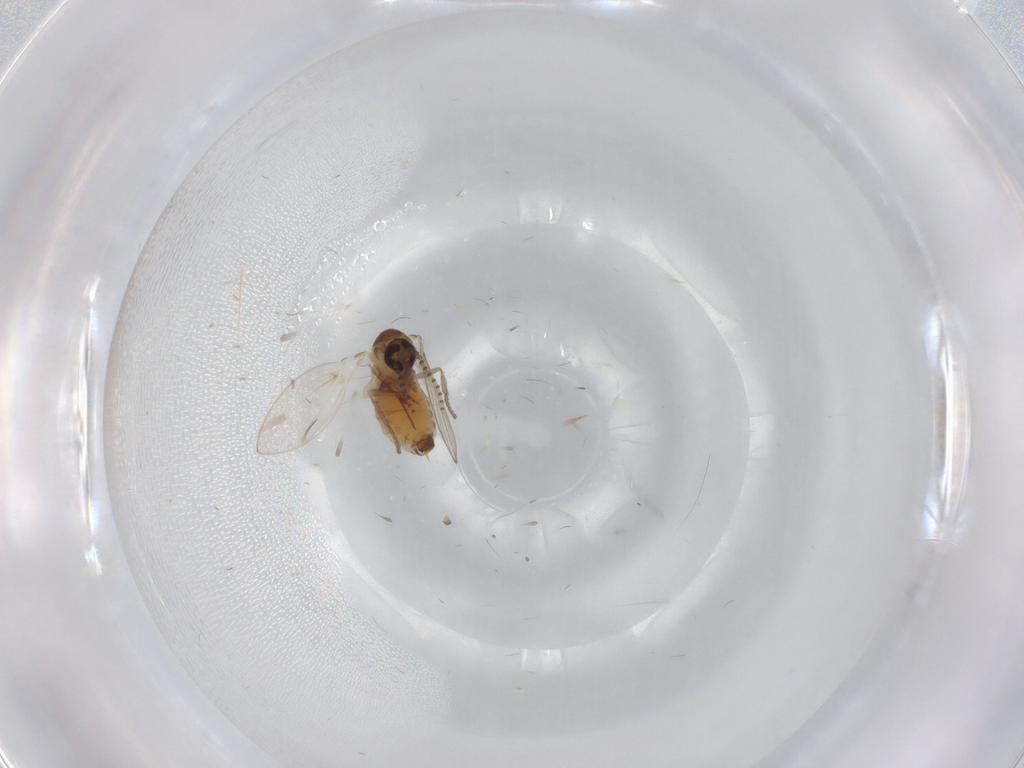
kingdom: Animalia
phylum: Arthropoda
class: Insecta
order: Diptera
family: Psychodidae
